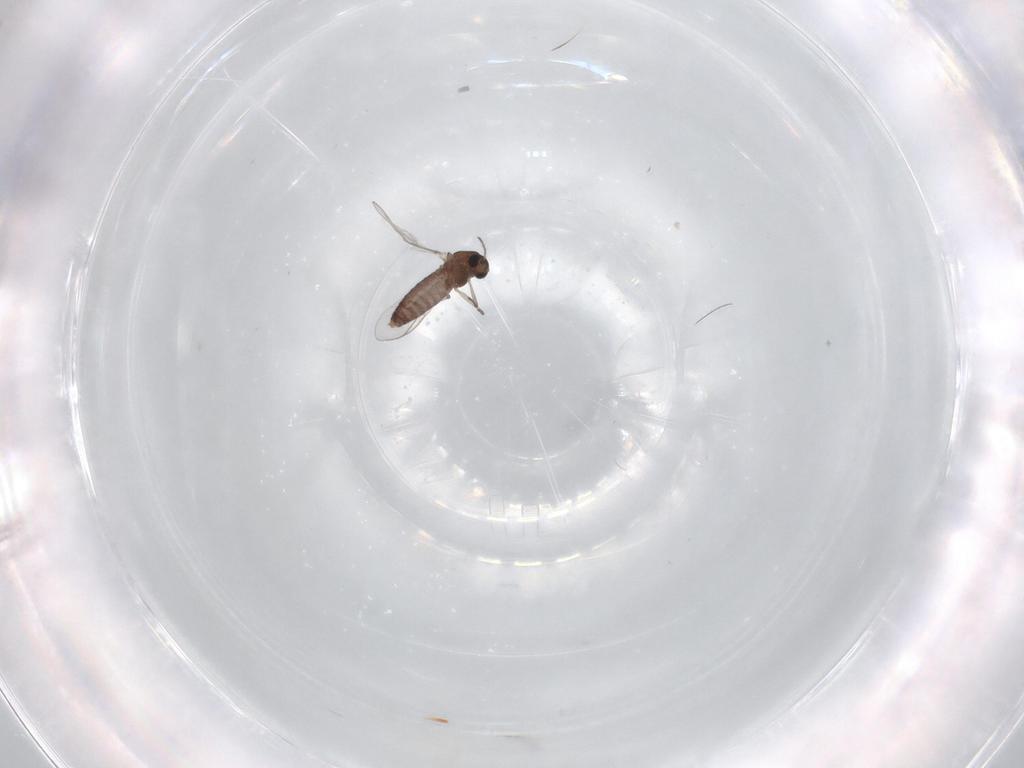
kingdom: Animalia
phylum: Arthropoda
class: Insecta
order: Diptera
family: Chironomidae
